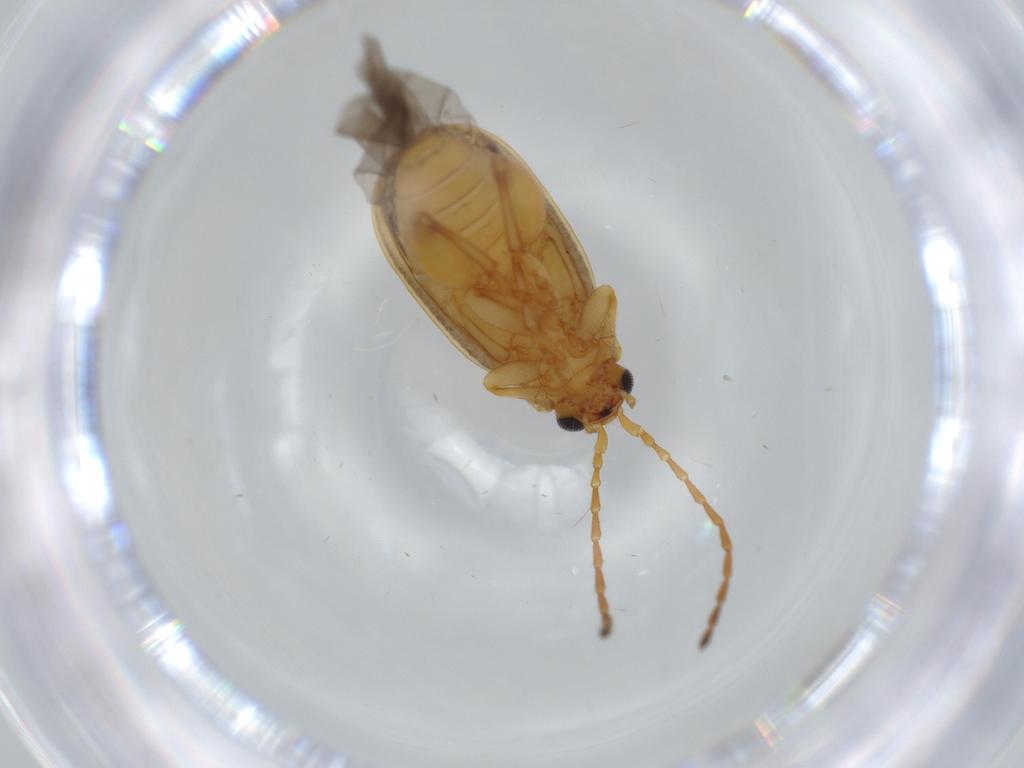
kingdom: Animalia
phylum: Arthropoda
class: Insecta
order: Coleoptera
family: Chrysomelidae
